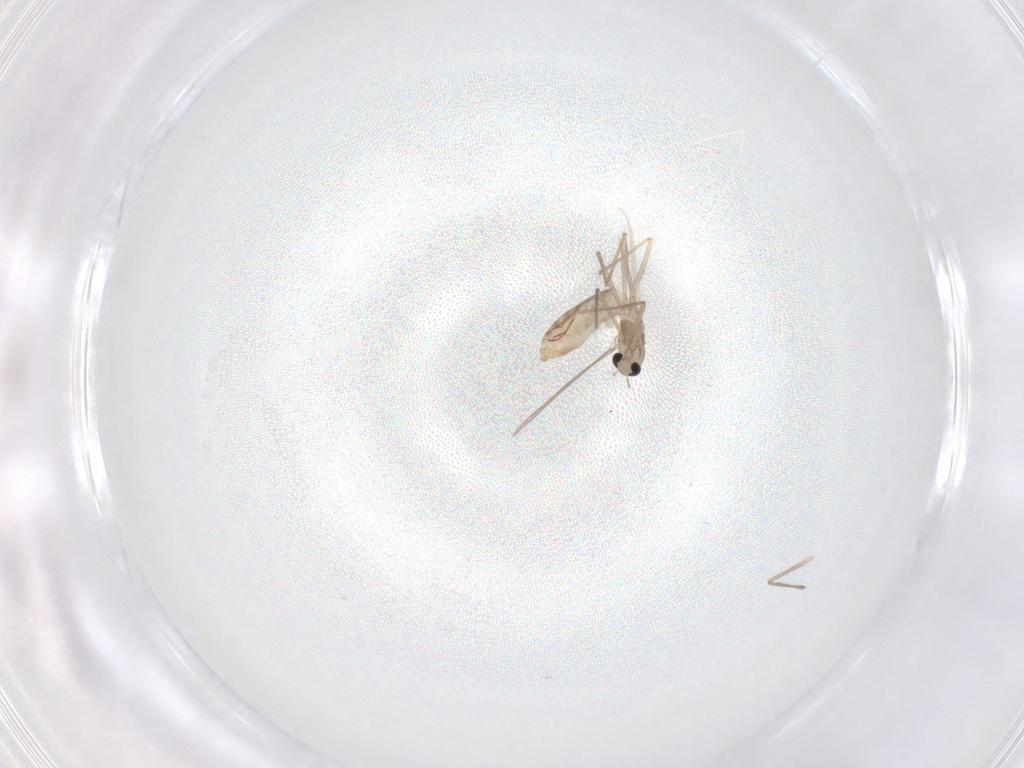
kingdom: Animalia
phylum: Arthropoda
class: Insecta
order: Diptera
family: Chironomidae
